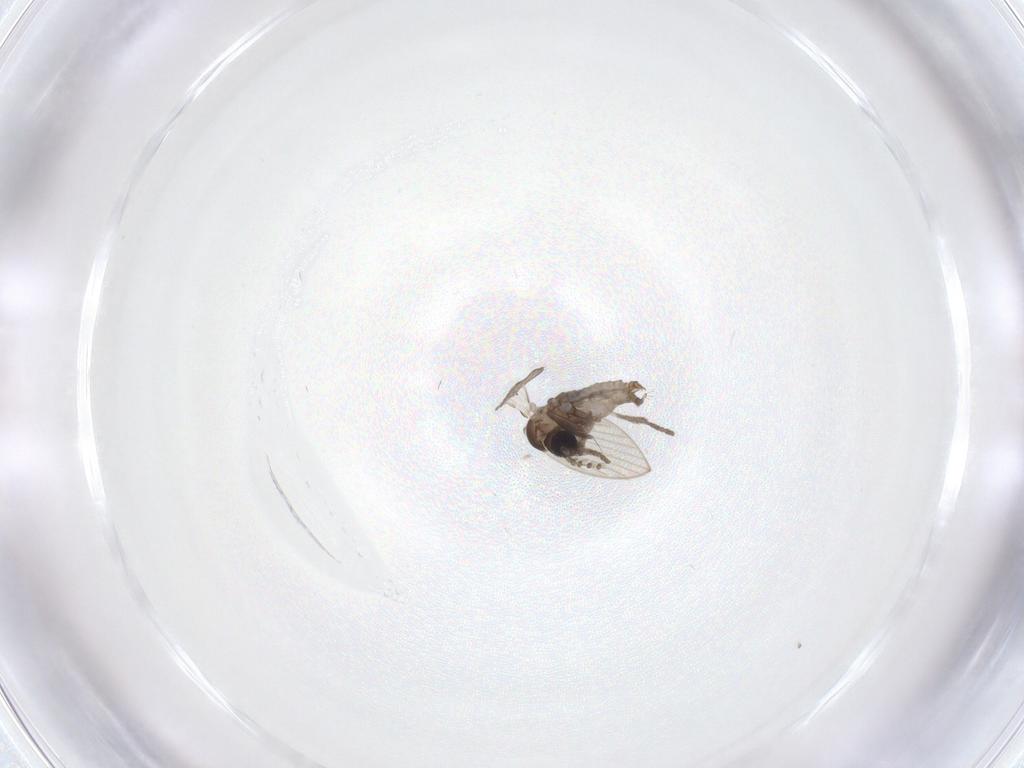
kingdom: Animalia
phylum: Arthropoda
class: Insecta
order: Diptera
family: Psychodidae
